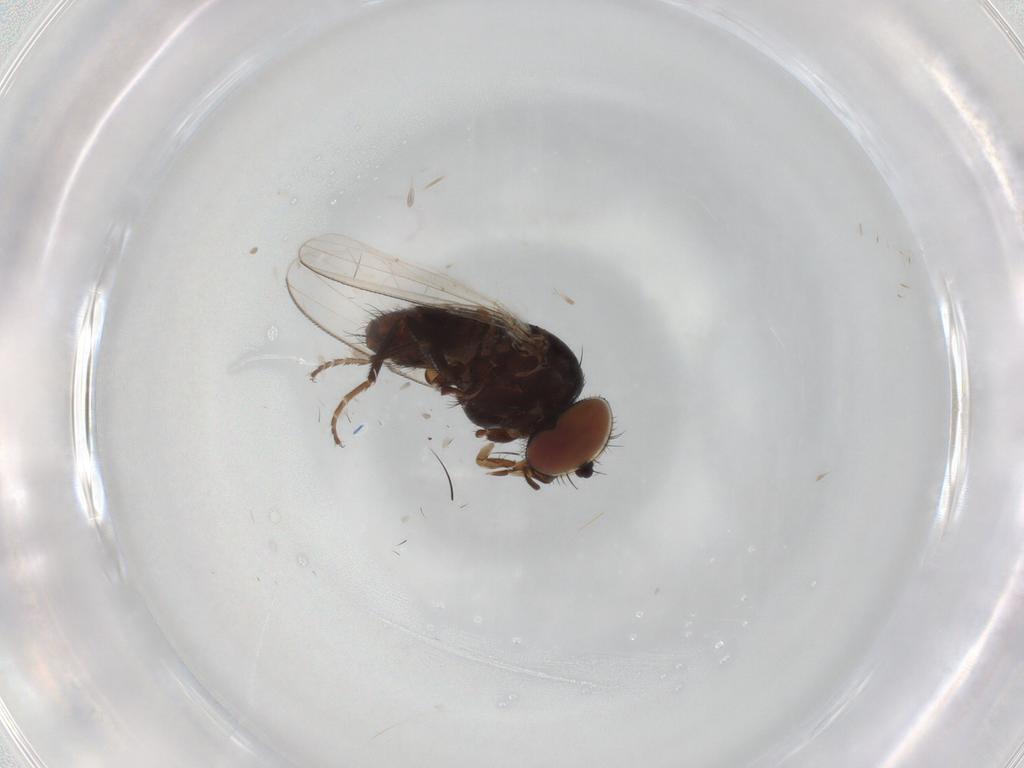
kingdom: Animalia
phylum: Arthropoda
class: Insecta
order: Diptera
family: Milichiidae
